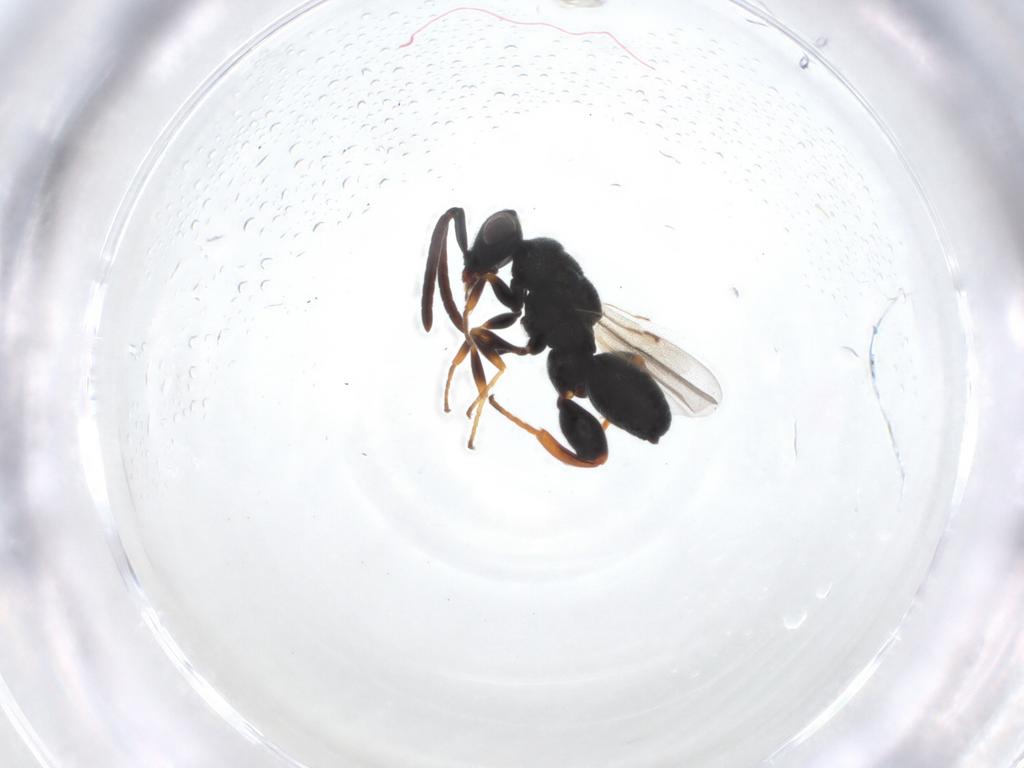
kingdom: Animalia
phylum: Arthropoda
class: Insecta
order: Hymenoptera
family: Chalcididae
